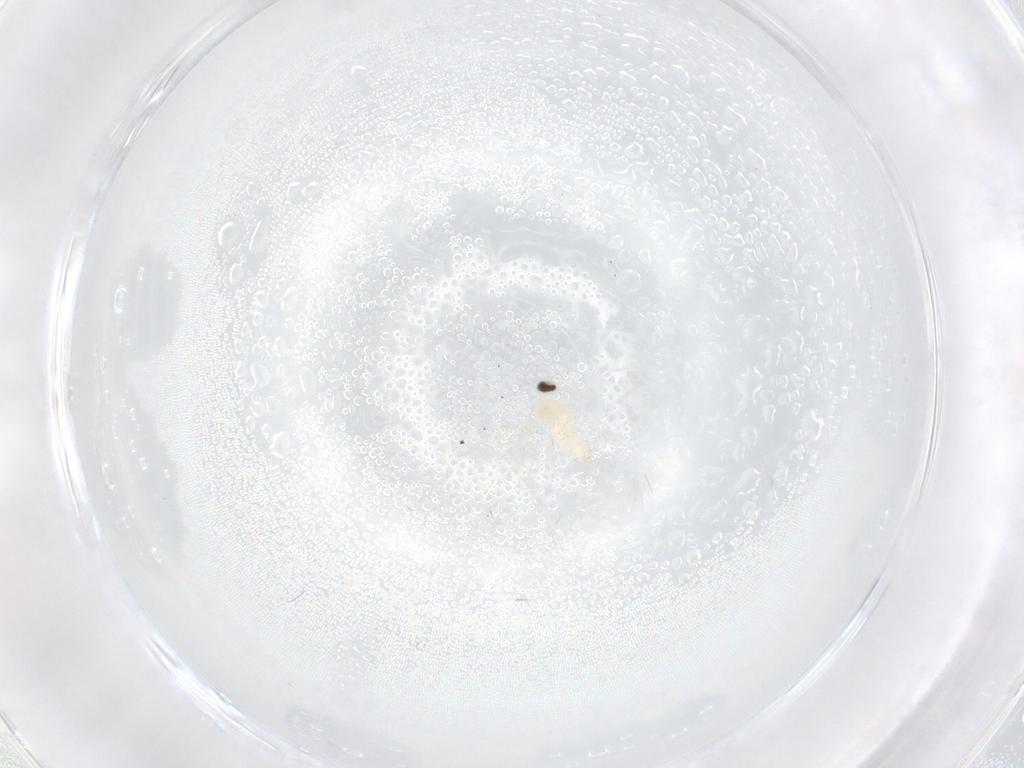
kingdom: Animalia
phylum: Arthropoda
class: Insecta
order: Diptera
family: Cecidomyiidae
